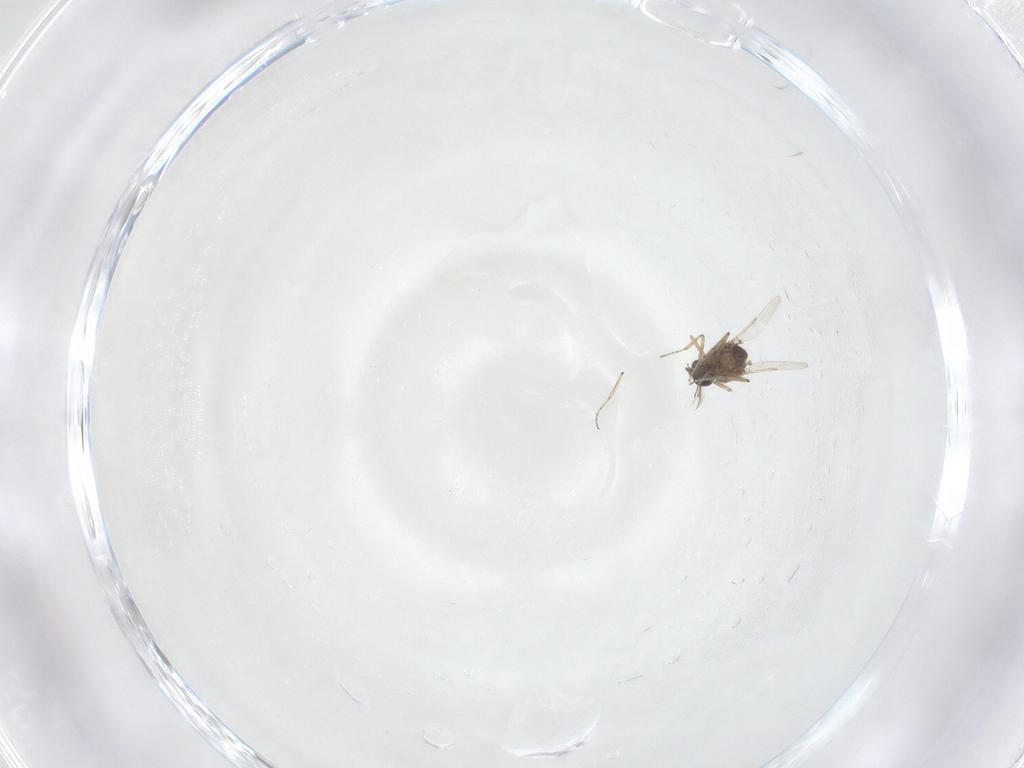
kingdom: Animalia
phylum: Arthropoda
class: Insecta
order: Diptera
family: Ceratopogonidae
